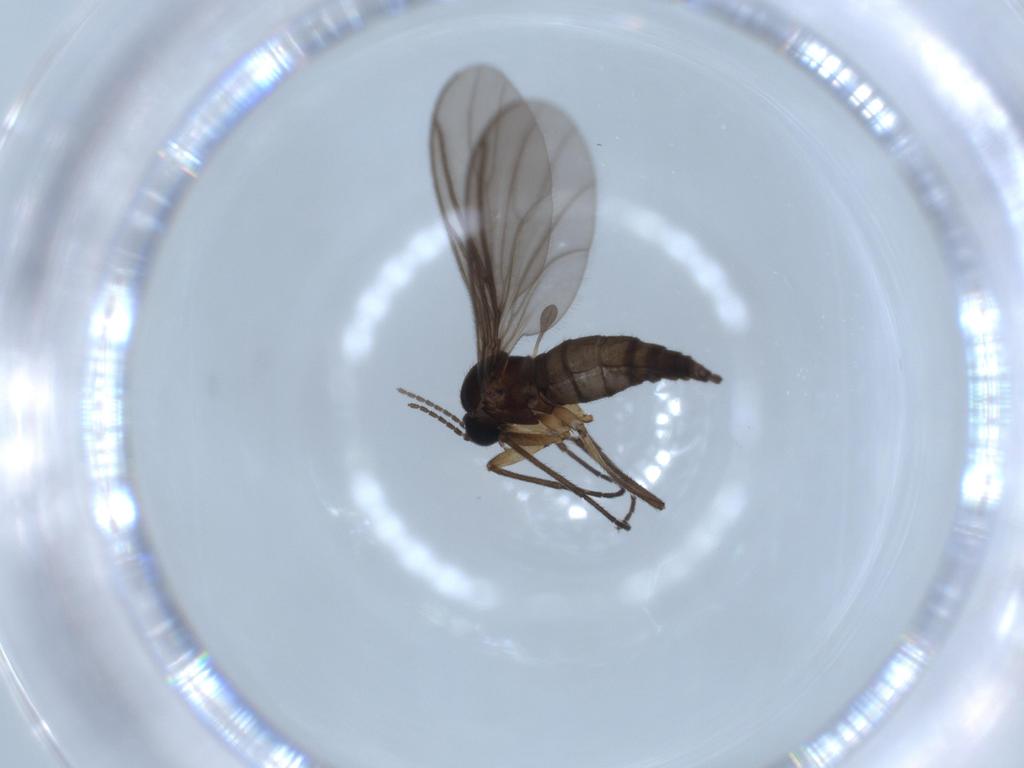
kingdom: Animalia
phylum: Arthropoda
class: Insecta
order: Diptera
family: Sciaridae
